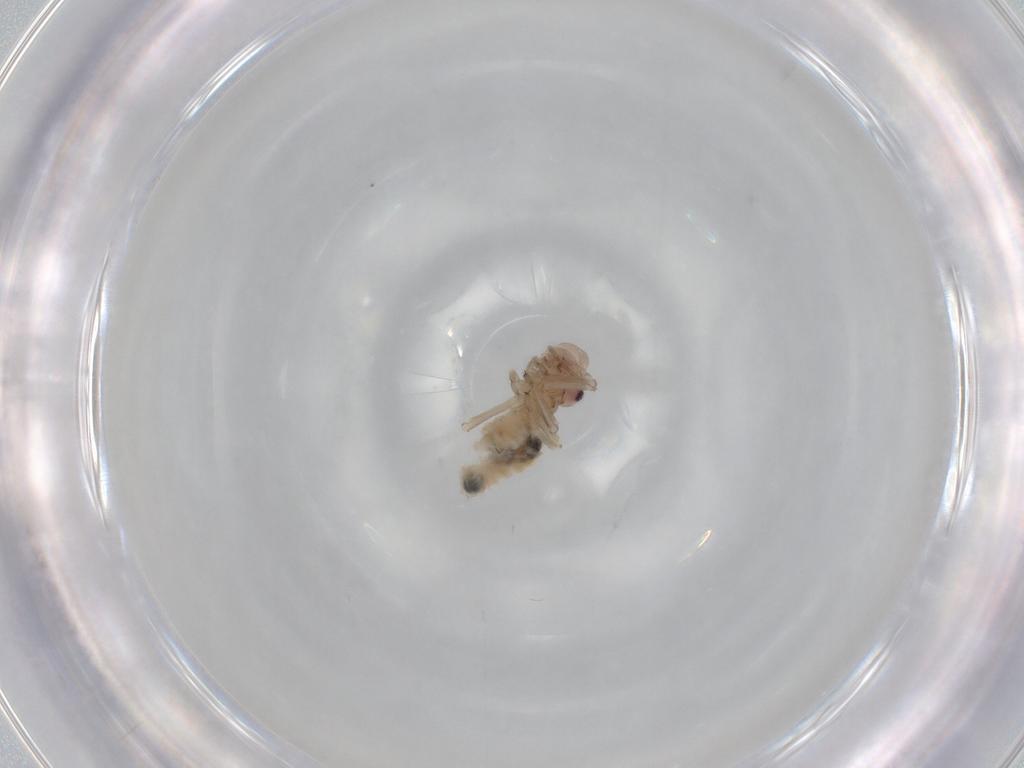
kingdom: Animalia
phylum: Arthropoda
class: Insecta
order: Psocodea
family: Stenopsocidae
